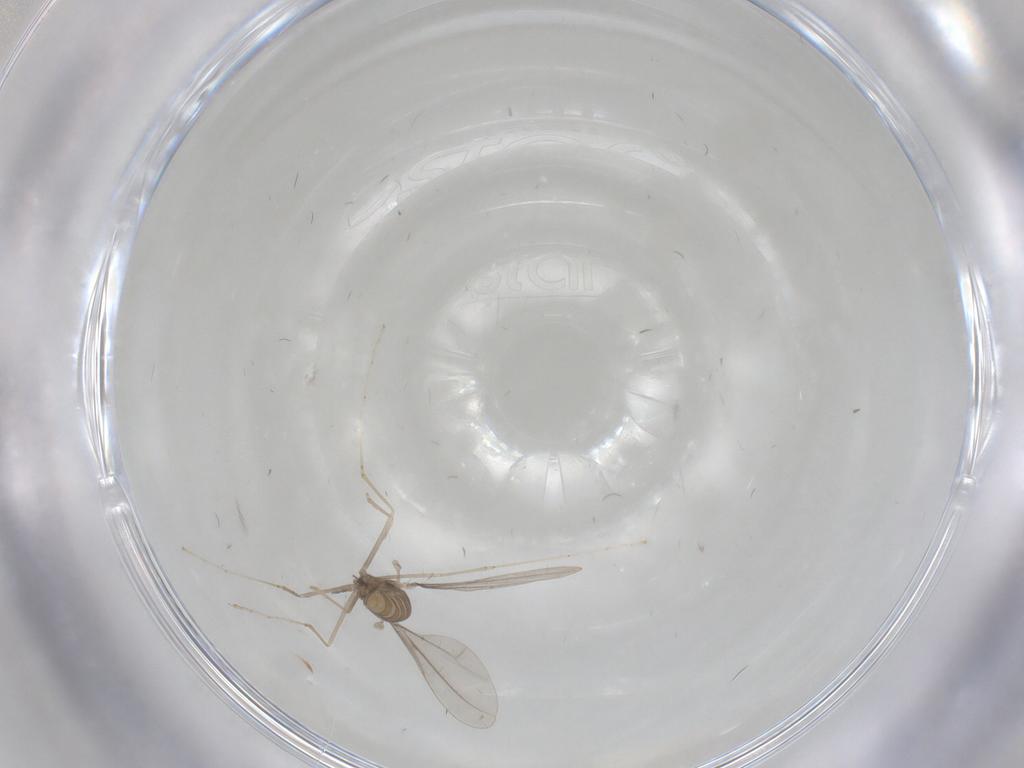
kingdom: Animalia
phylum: Arthropoda
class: Insecta
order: Diptera
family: Cecidomyiidae
